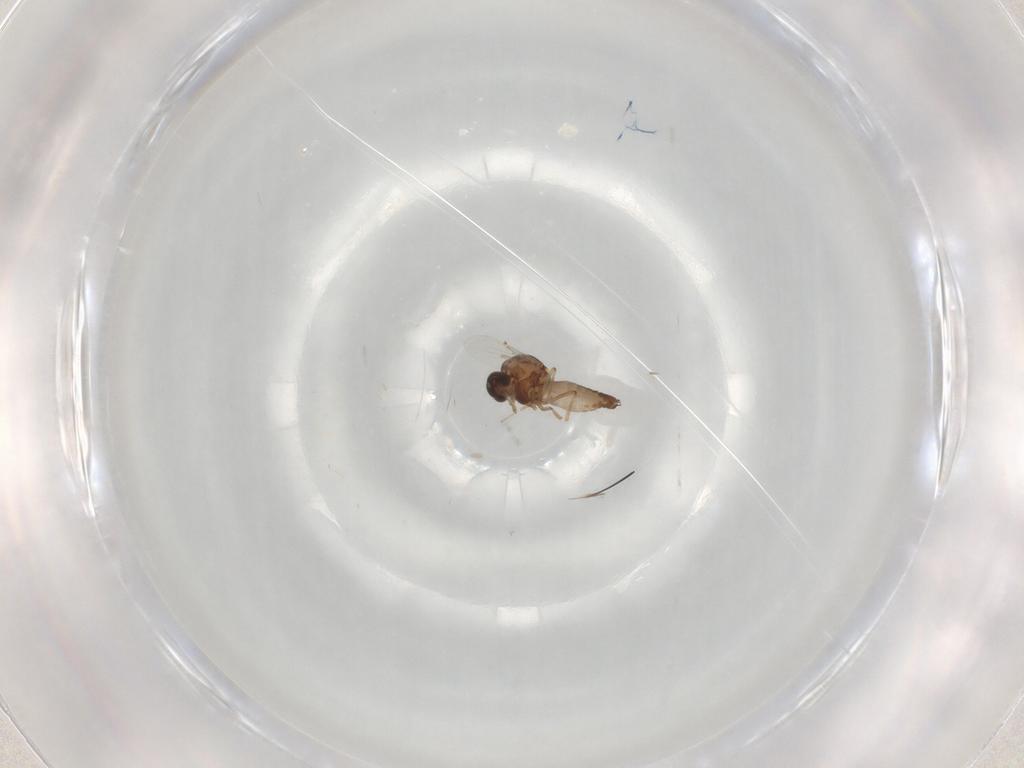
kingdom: Animalia
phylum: Arthropoda
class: Insecta
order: Diptera
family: Chloropidae
